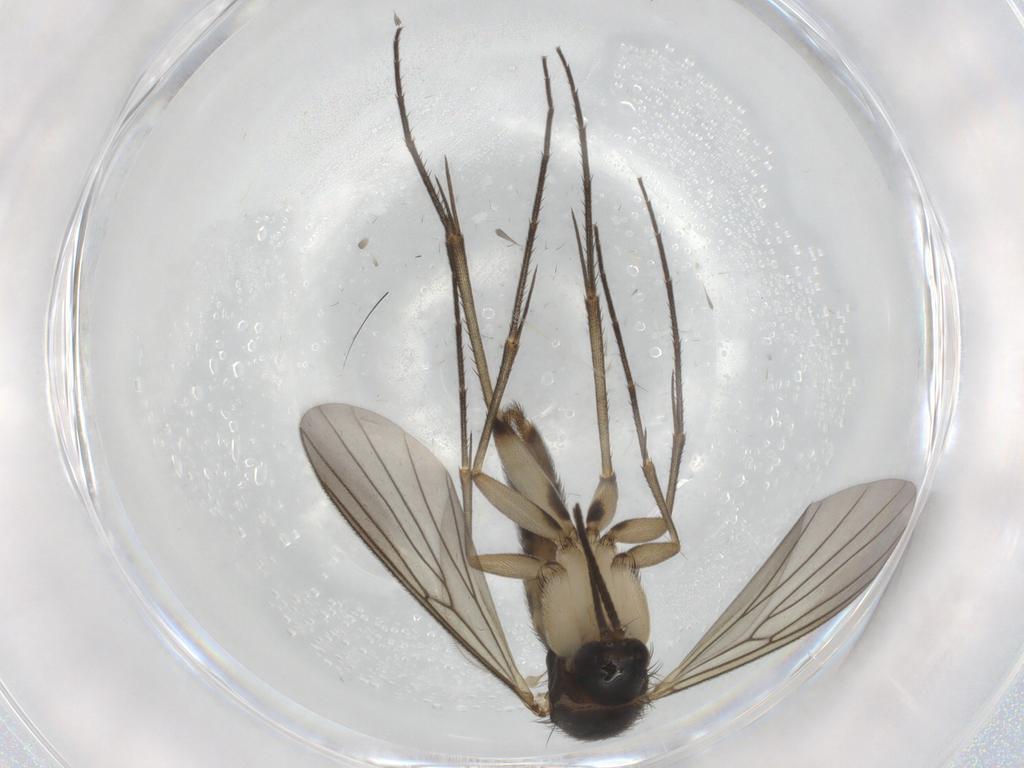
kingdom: Animalia
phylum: Arthropoda
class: Insecta
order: Diptera
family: Mycetophilidae
